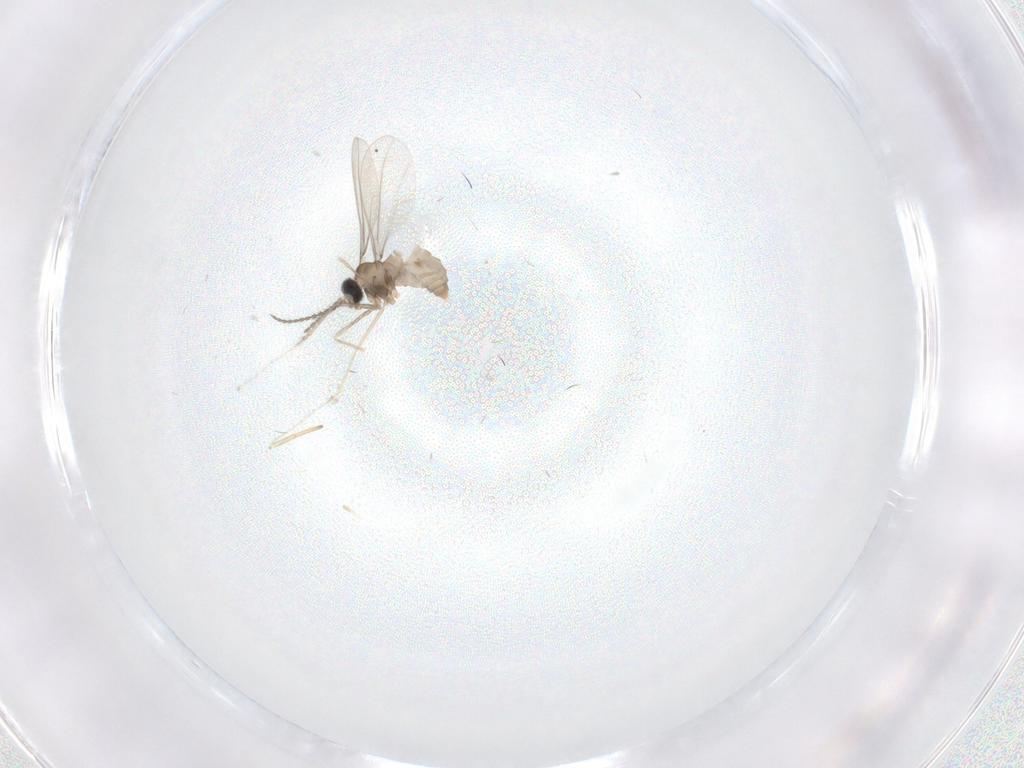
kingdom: Animalia
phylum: Arthropoda
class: Insecta
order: Diptera
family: Cecidomyiidae
